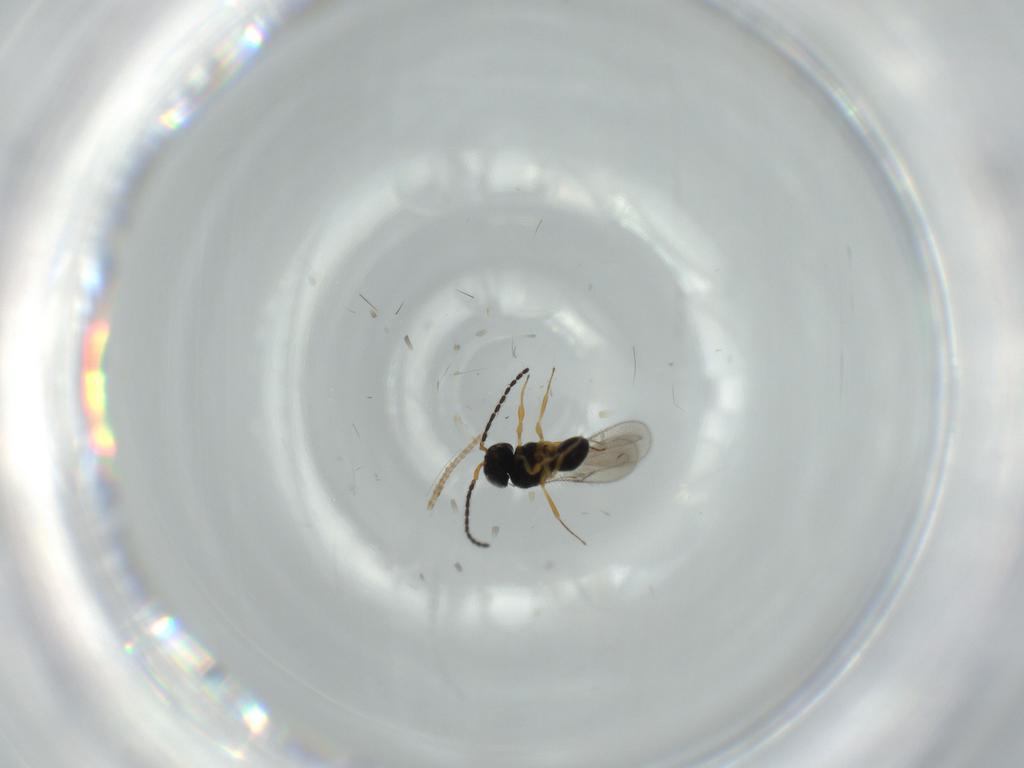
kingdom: Animalia
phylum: Arthropoda
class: Insecta
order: Hymenoptera
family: Scelionidae
